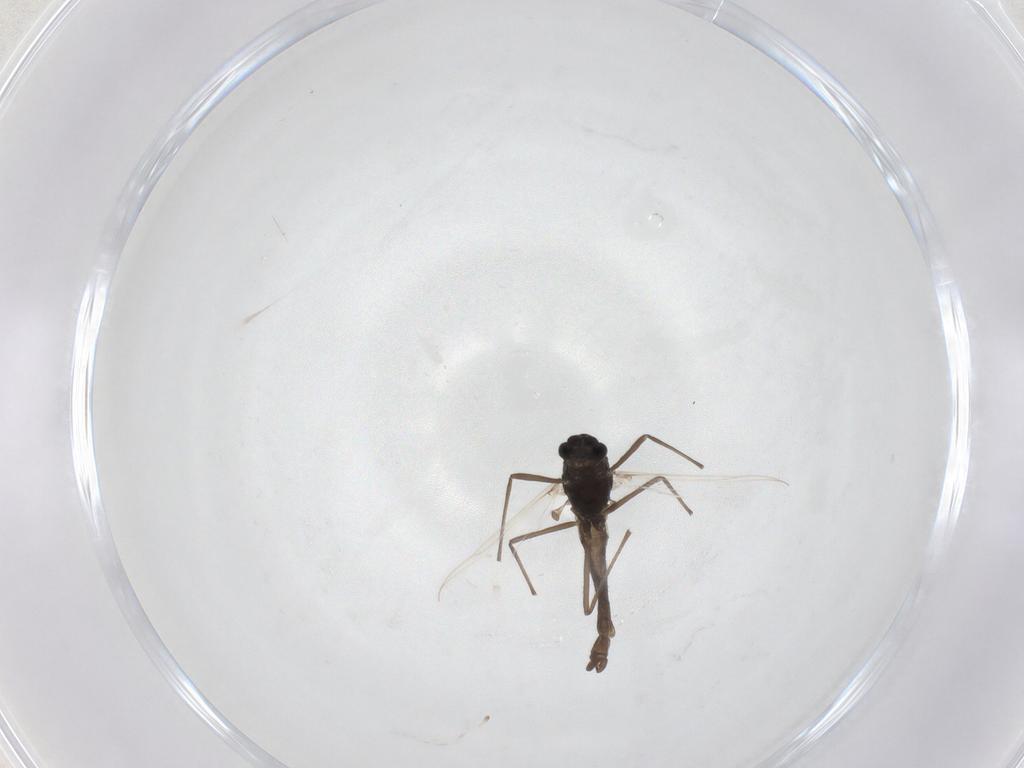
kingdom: Animalia
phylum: Arthropoda
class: Insecta
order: Diptera
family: Chironomidae
